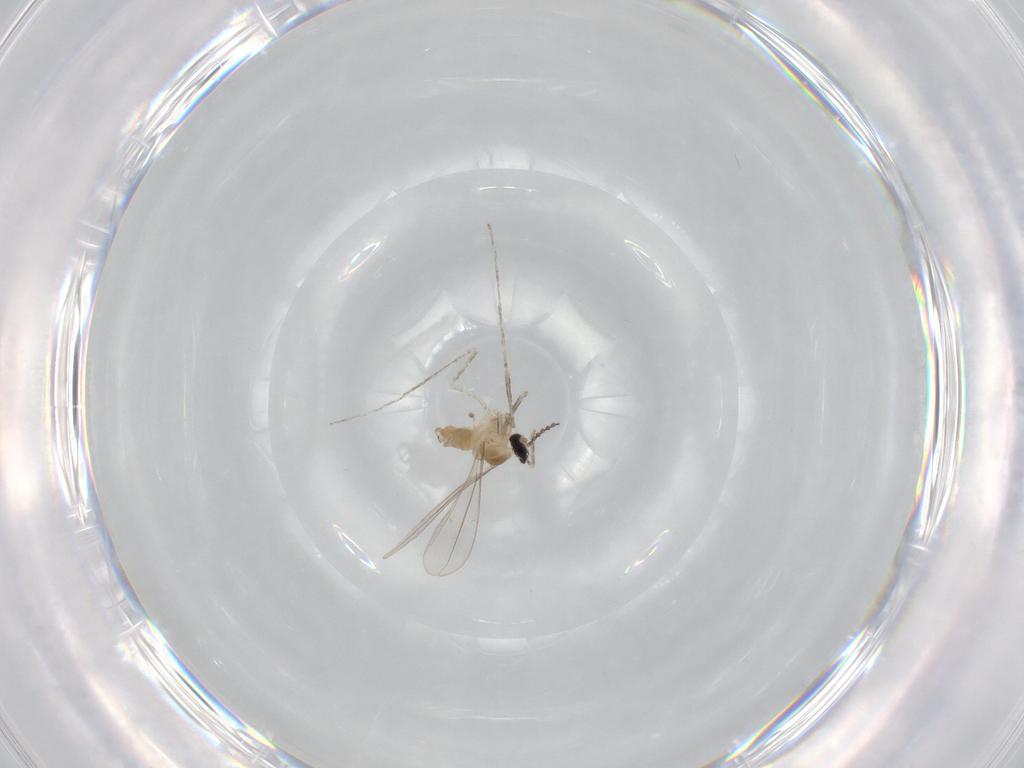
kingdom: Animalia
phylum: Arthropoda
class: Insecta
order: Diptera
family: Cecidomyiidae
